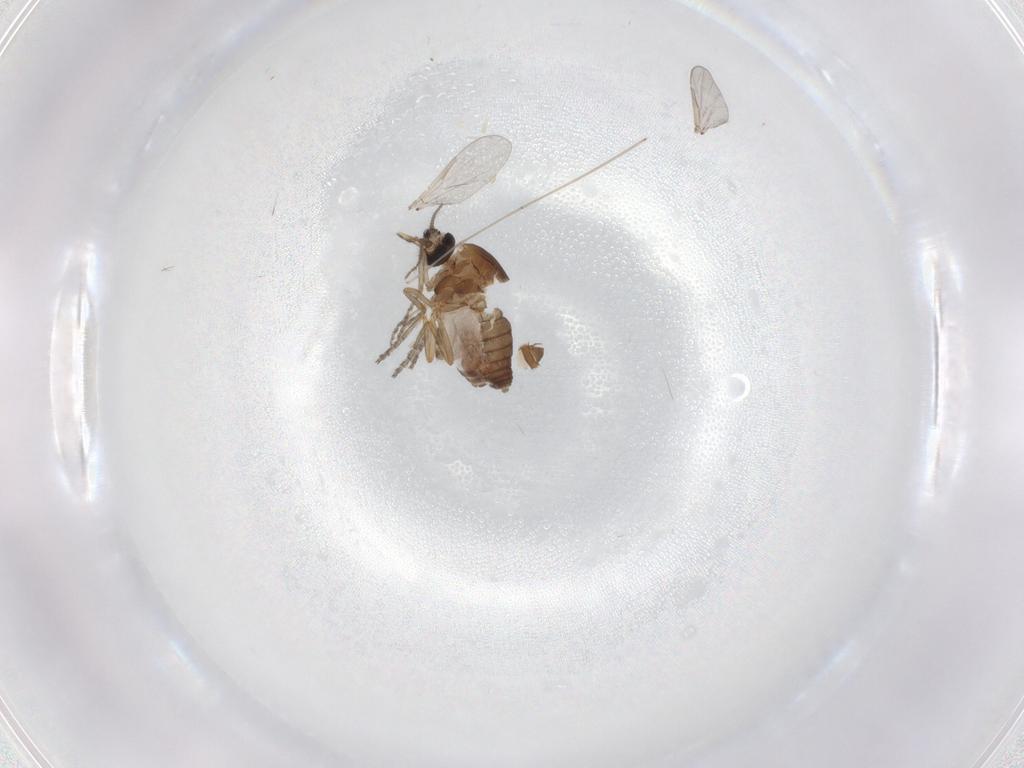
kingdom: Animalia
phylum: Arthropoda
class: Insecta
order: Diptera
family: Ceratopogonidae
